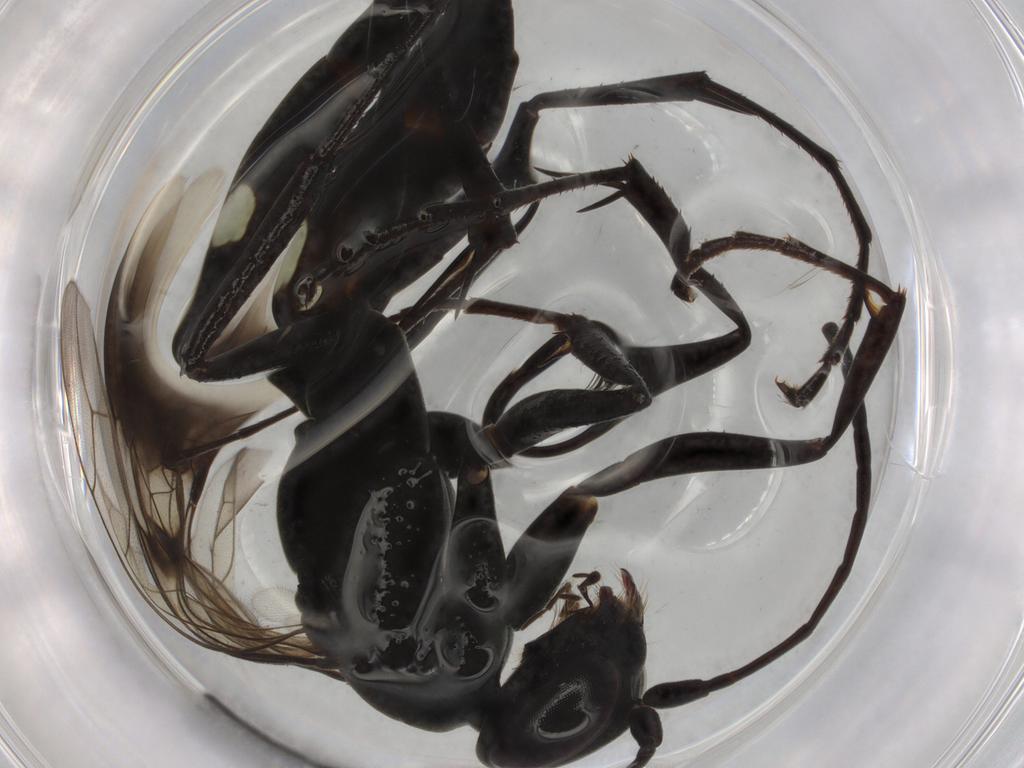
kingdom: Animalia
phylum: Arthropoda
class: Insecta
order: Hymenoptera
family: Pompilidae
